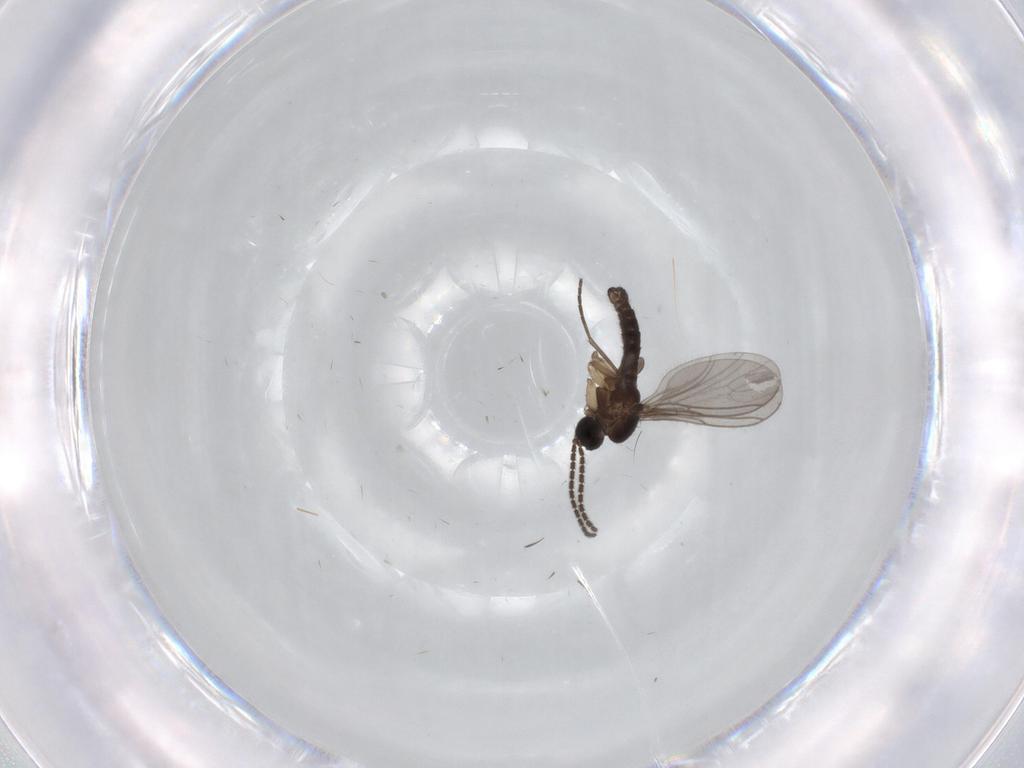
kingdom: Animalia
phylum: Arthropoda
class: Insecta
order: Diptera
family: Sciaridae
